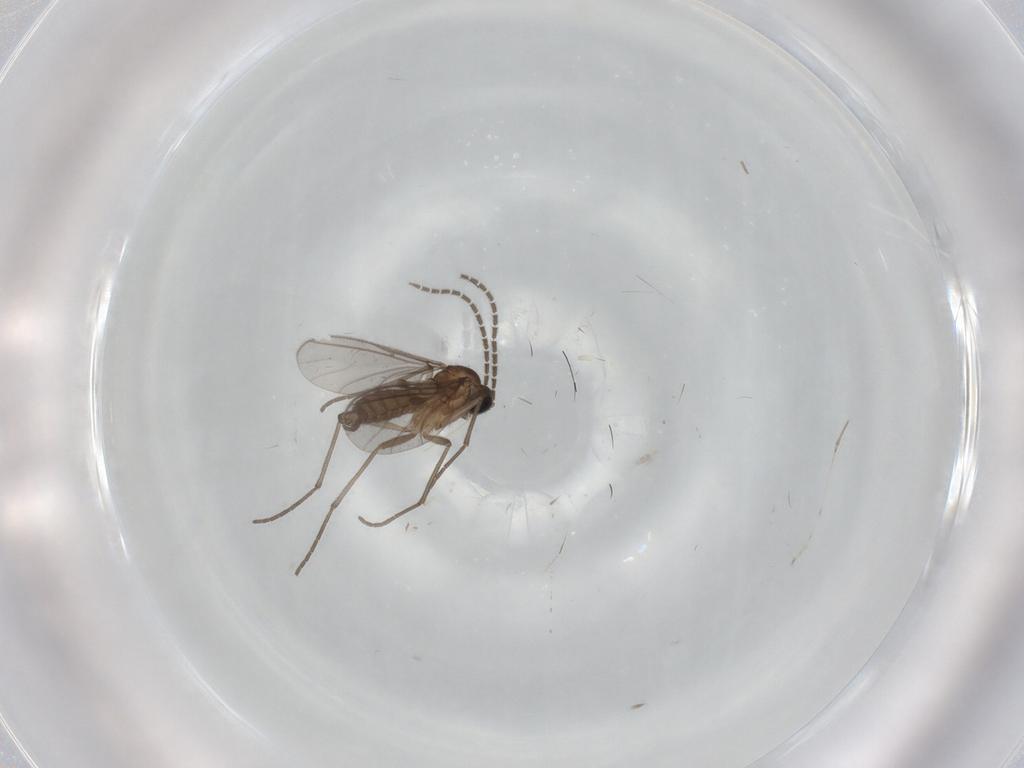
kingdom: Animalia
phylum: Arthropoda
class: Insecta
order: Diptera
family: Sciaridae
